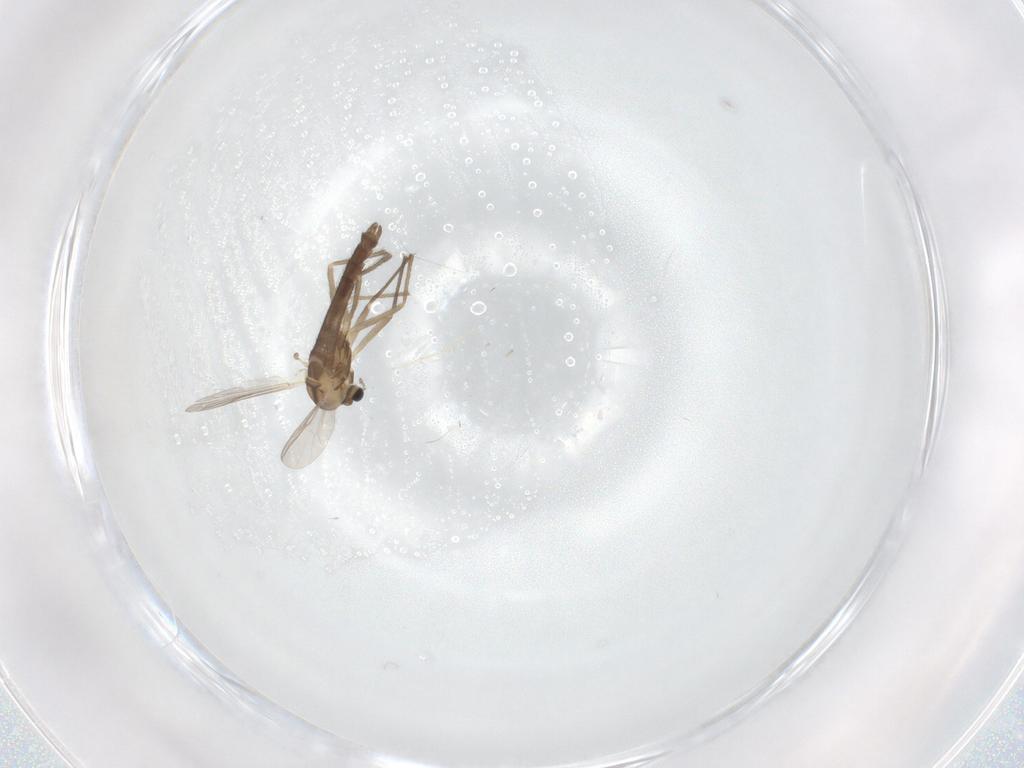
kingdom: Animalia
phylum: Arthropoda
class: Insecta
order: Diptera
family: Chironomidae
